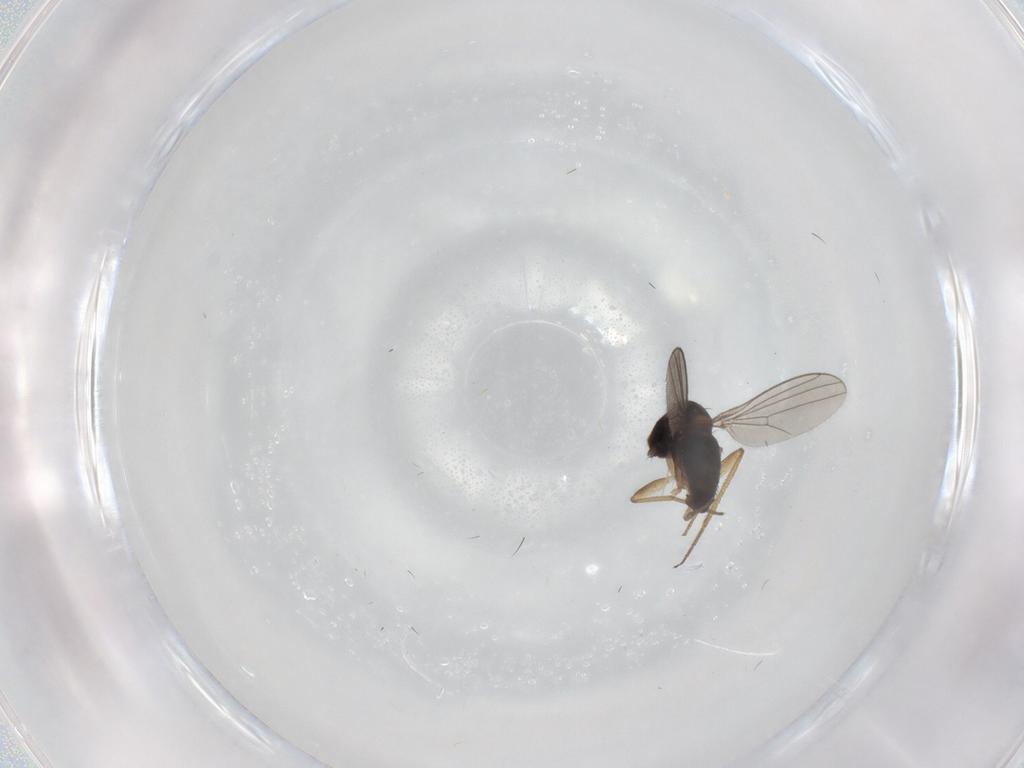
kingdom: Animalia
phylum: Arthropoda
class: Insecta
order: Diptera
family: Dolichopodidae
